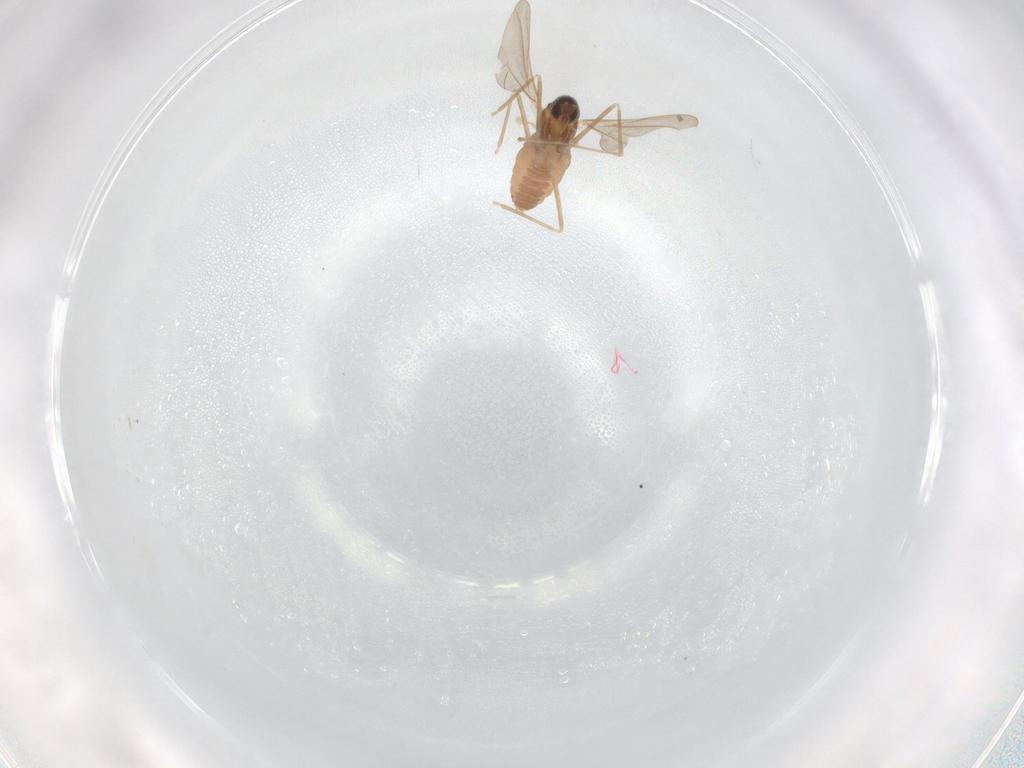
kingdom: Animalia
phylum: Arthropoda
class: Insecta
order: Diptera
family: Cecidomyiidae
